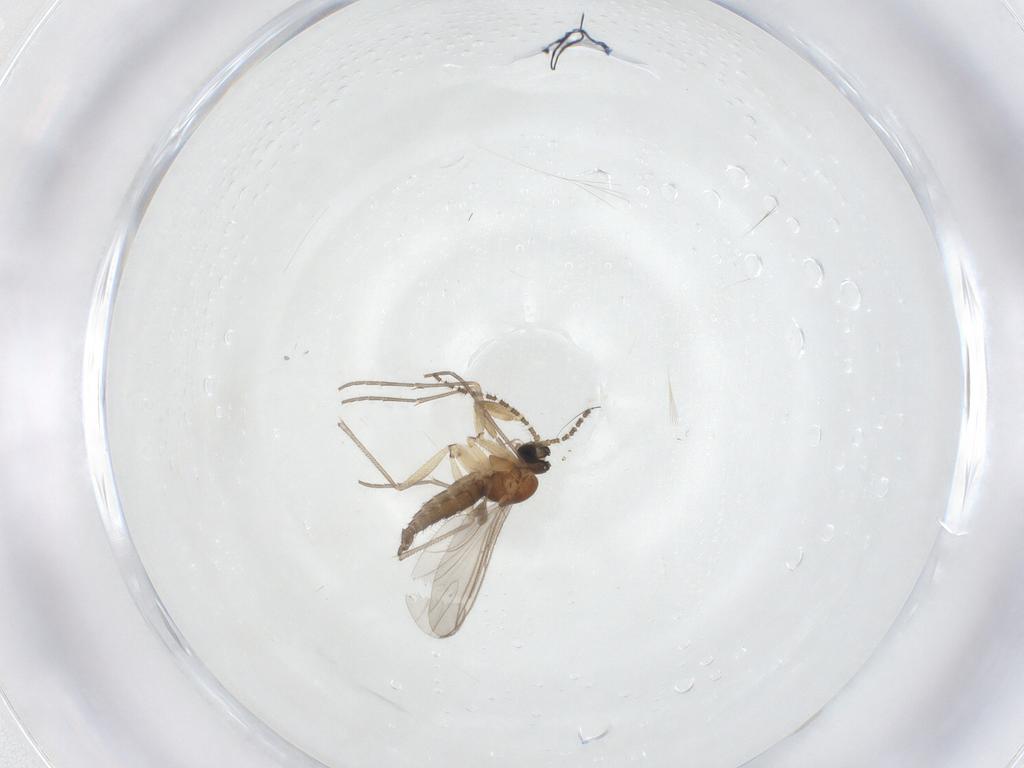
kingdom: Animalia
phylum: Arthropoda
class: Insecta
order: Diptera
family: Sciaridae
